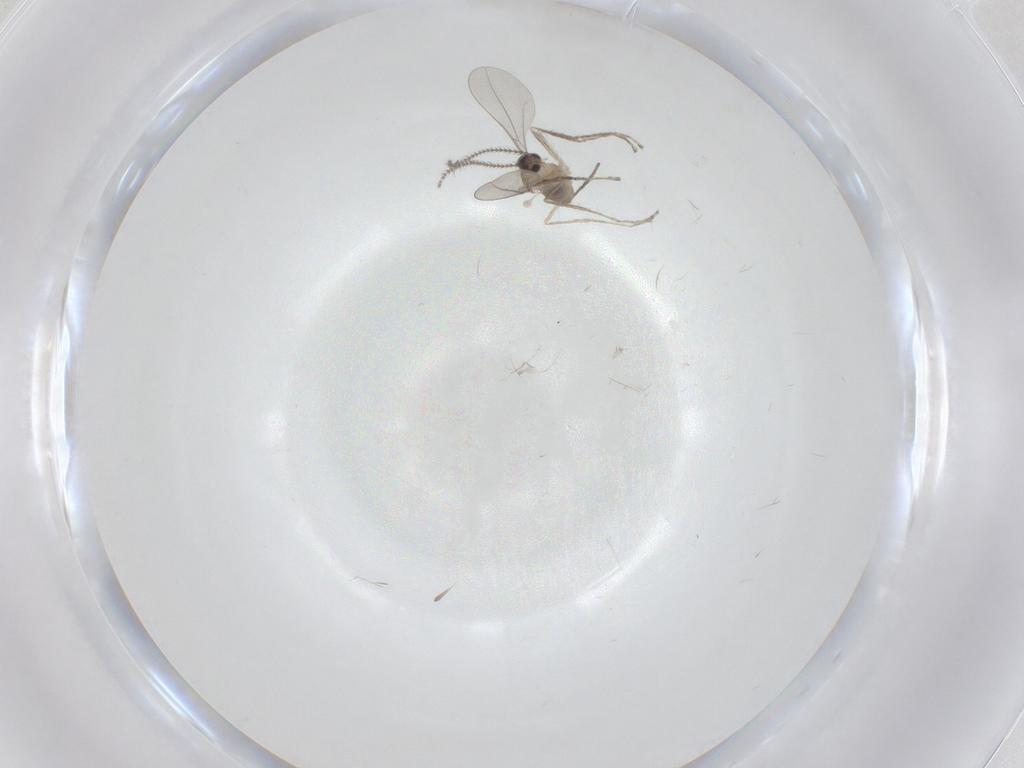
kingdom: Animalia
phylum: Arthropoda
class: Insecta
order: Diptera
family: Cecidomyiidae
